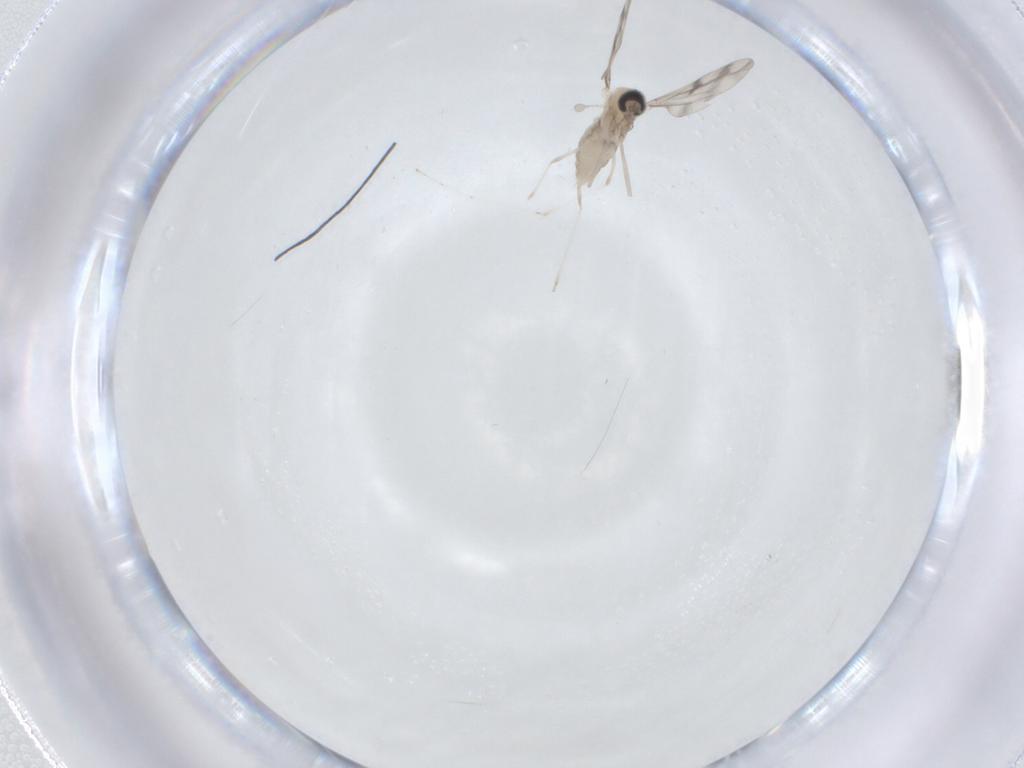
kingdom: Animalia
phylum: Arthropoda
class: Insecta
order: Diptera
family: Cecidomyiidae
